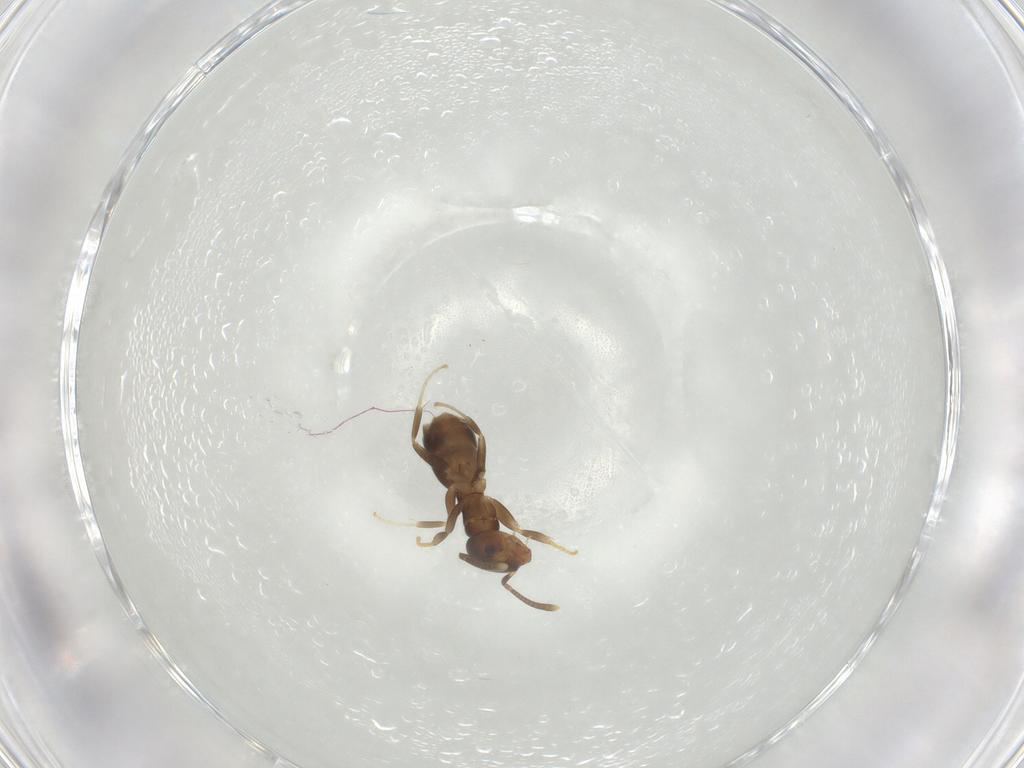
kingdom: Animalia
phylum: Arthropoda
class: Insecta
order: Hymenoptera
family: Formicidae
